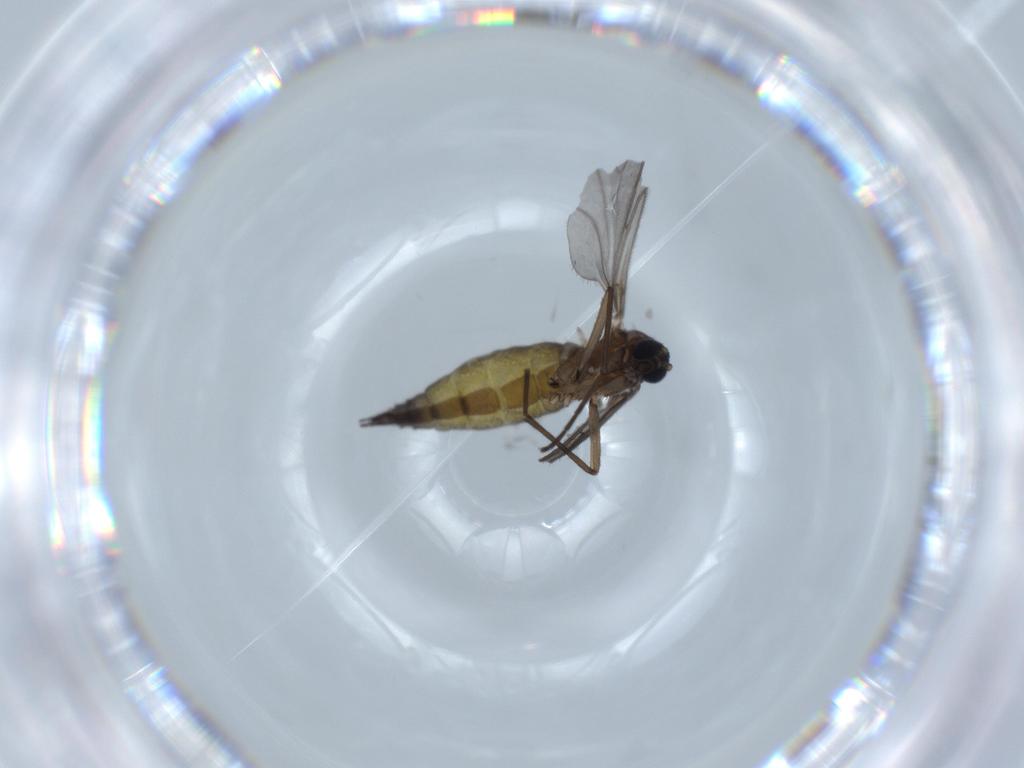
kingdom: Animalia
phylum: Arthropoda
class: Insecta
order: Diptera
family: Sciaridae
